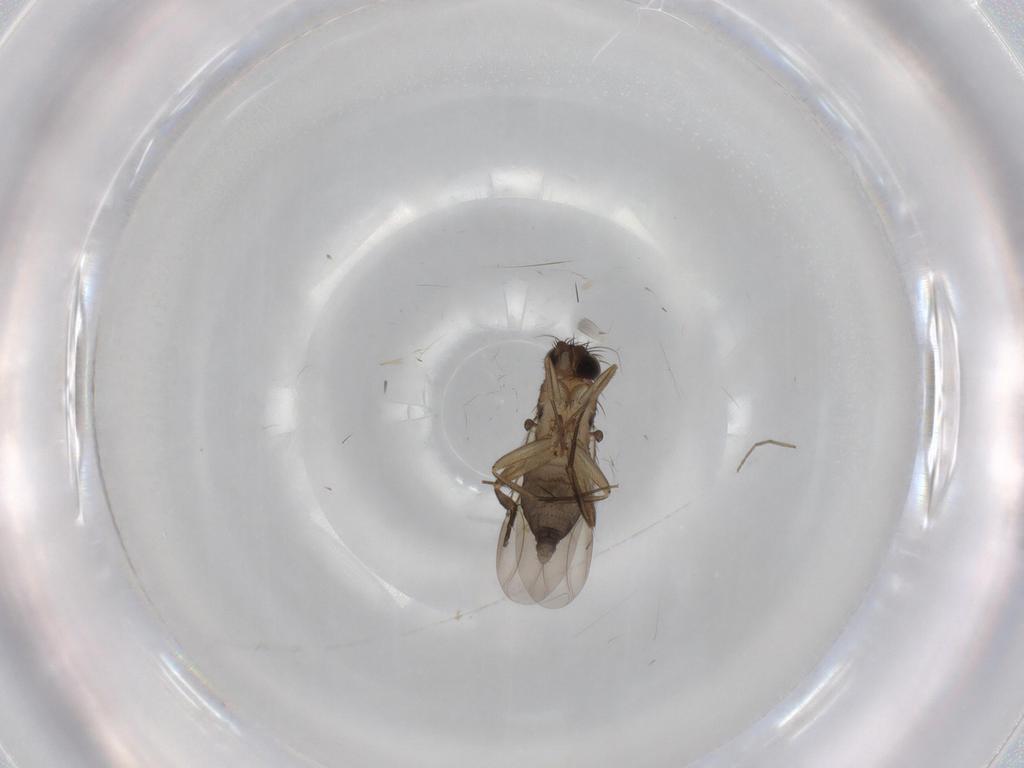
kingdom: Animalia
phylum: Arthropoda
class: Insecta
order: Diptera
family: Phoridae
